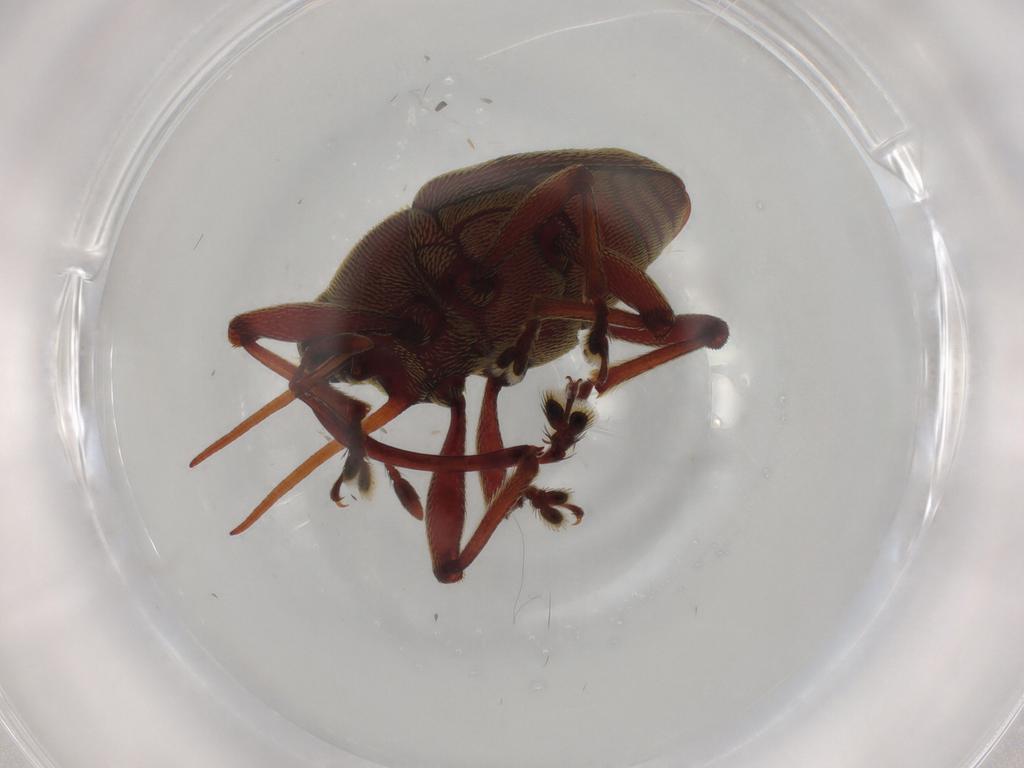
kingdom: Animalia
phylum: Arthropoda
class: Insecta
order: Coleoptera
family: Curculionidae
